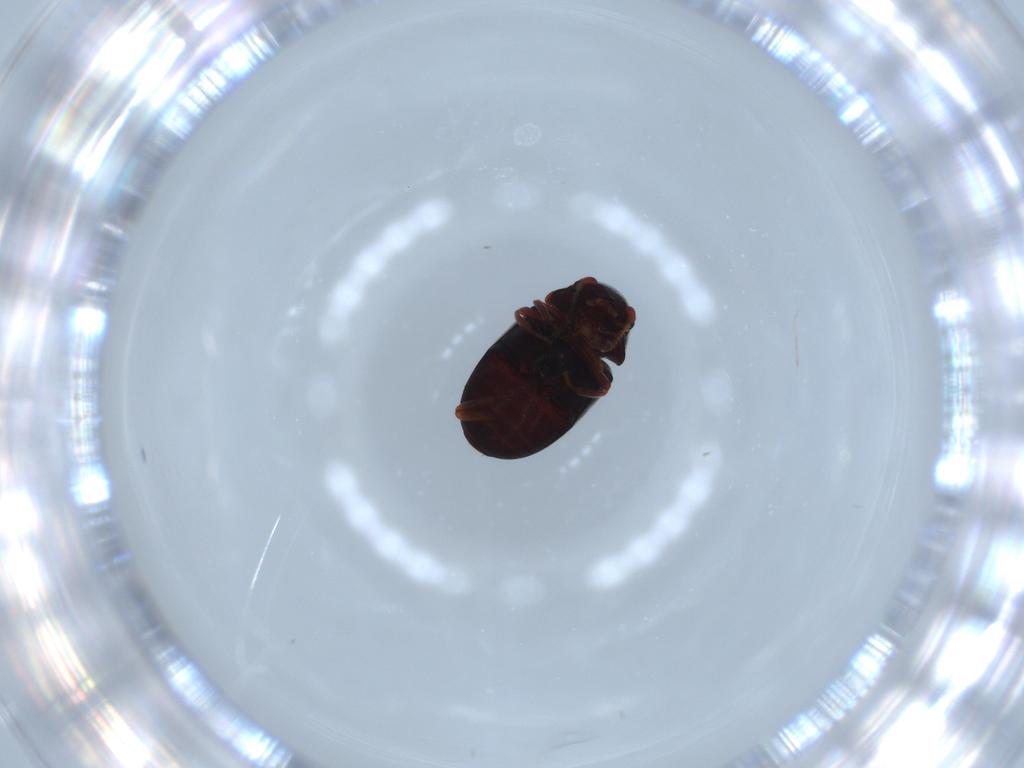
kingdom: Animalia
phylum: Arthropoda
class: Insecta
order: Coleoptera
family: Chrysomelidae
